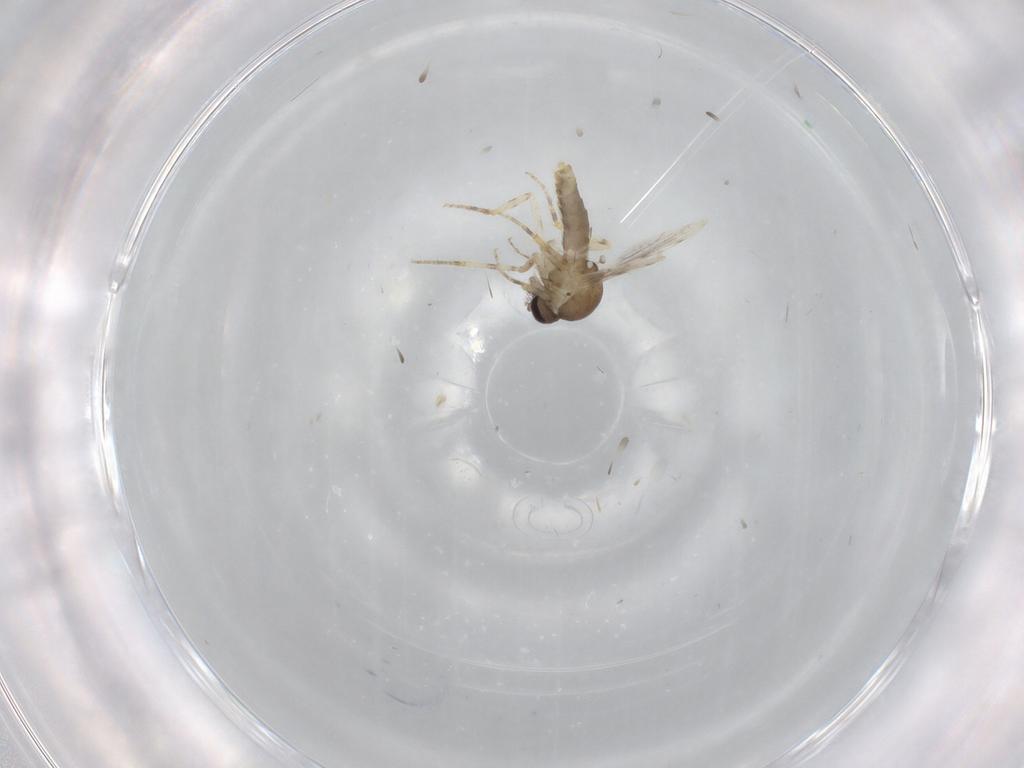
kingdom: Animalia
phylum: Arthropoda
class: Insecta
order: Diptera
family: Ceratopogonidae
